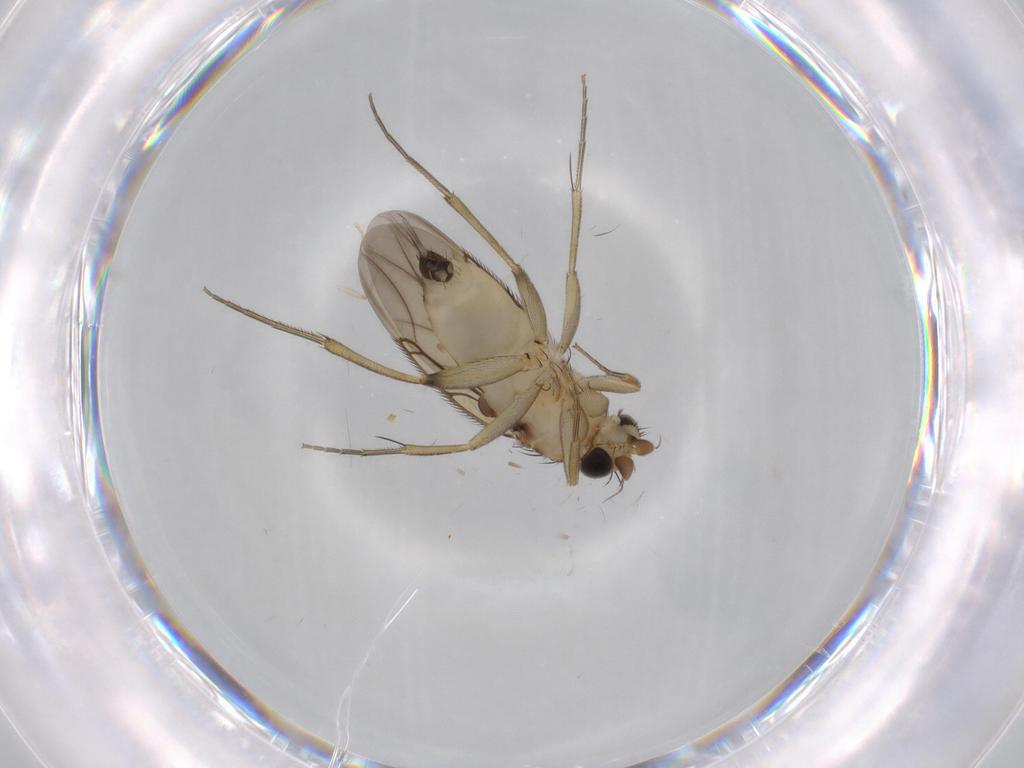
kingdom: Animalia
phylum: Arthropoda
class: Insecta
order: Diptera
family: Phoridae
